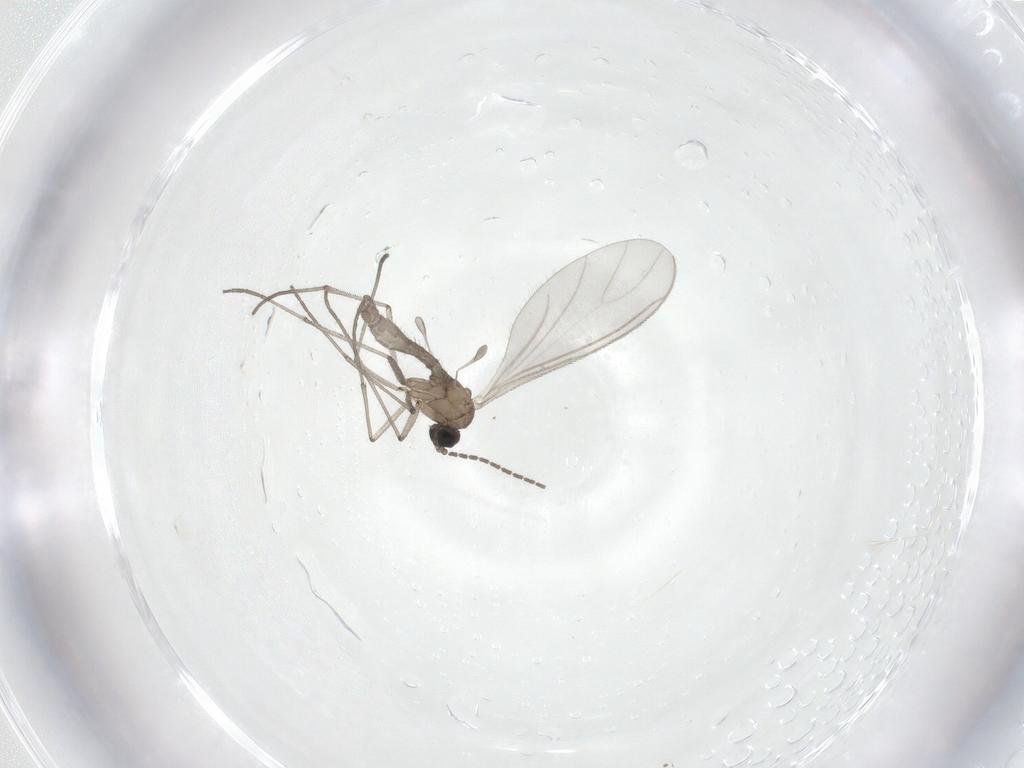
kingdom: Animalia
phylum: Arthropoda
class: Insecta
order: Diptera
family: Sciaridae
